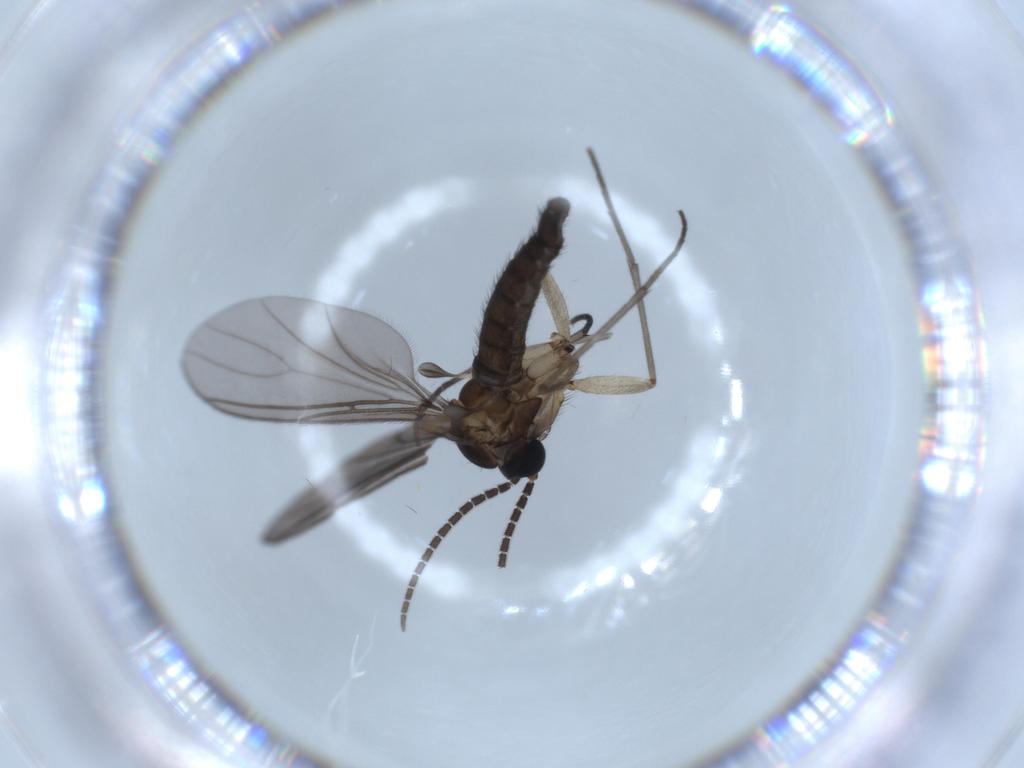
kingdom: Animalia
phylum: Arthropoda
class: Insecta
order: Diptera
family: Sciaridae
